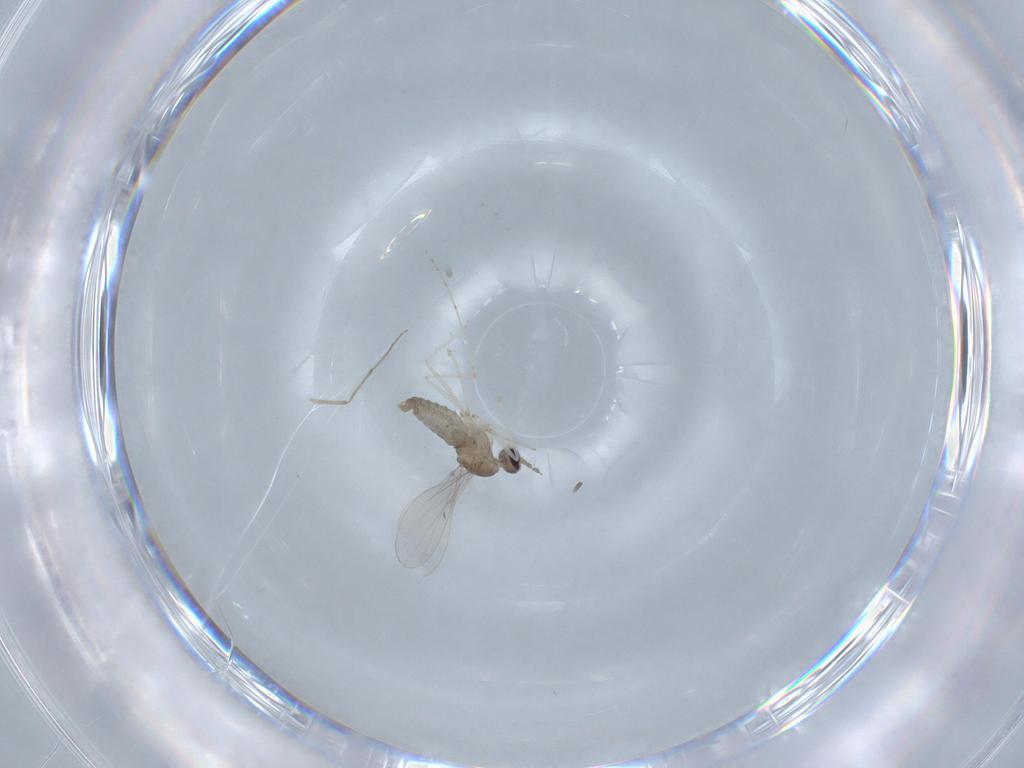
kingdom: Animalia
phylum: Arthropoda
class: Insecta
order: Diptera
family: Cecidomyiidae
